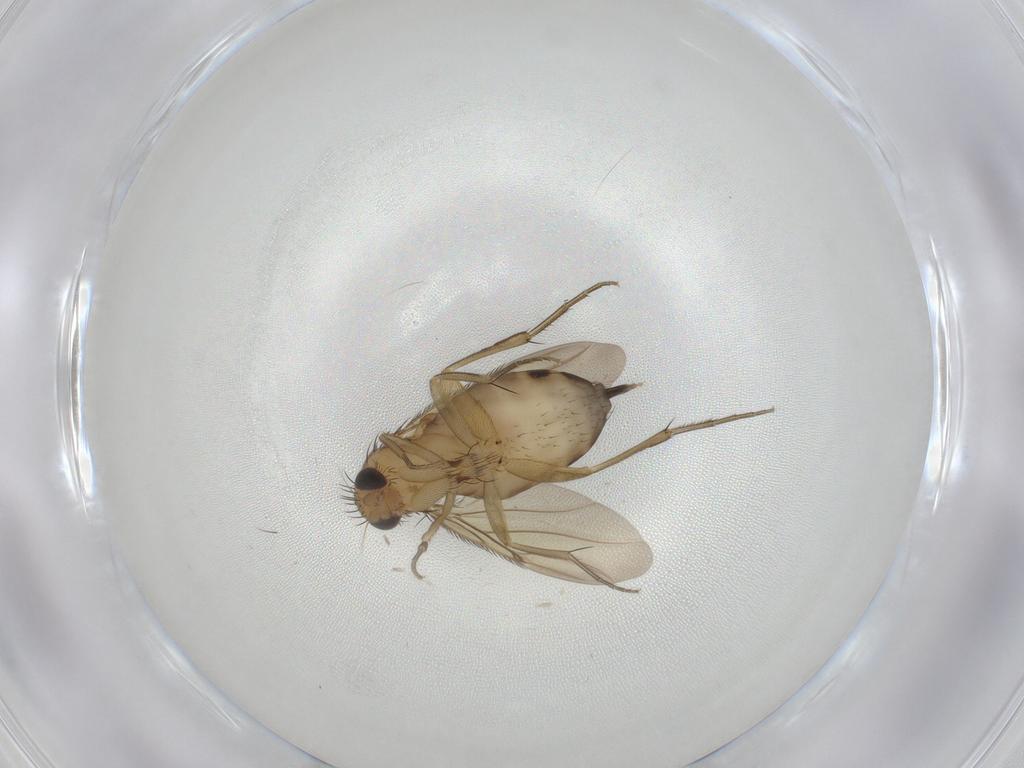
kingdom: Animalia
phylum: Arthropoda
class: Insecta
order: Diptera
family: Phoridae
